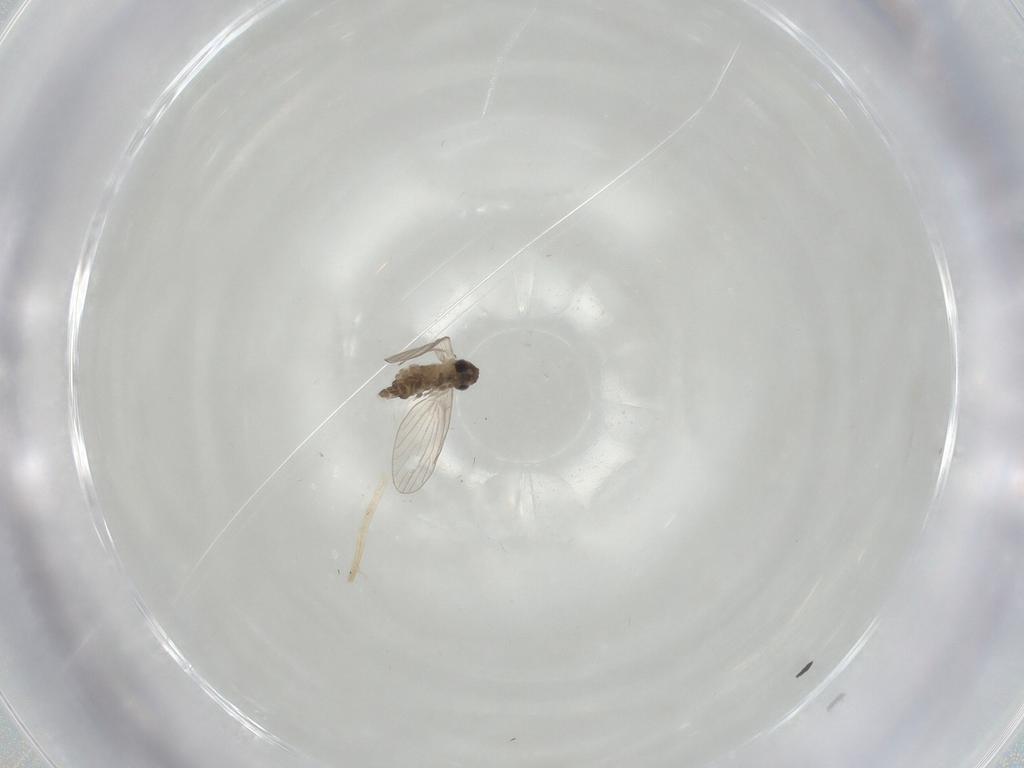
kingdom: Animalia
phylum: Arthropoda
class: Insecta
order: Diptera
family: Psychodidae
